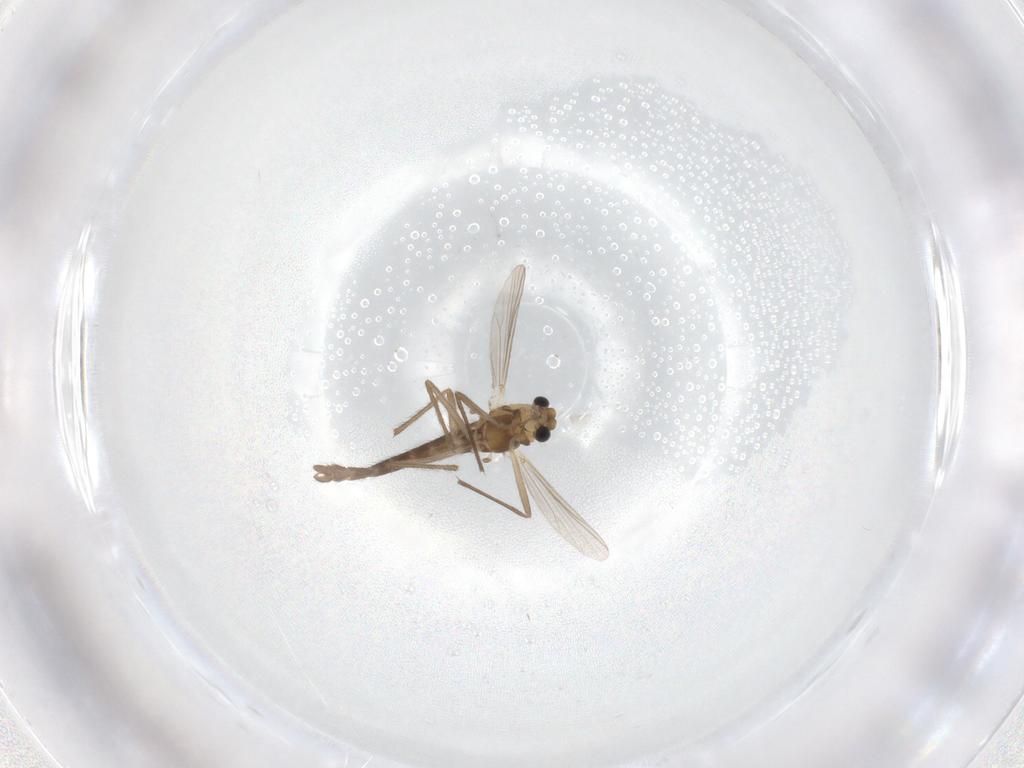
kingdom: Animalia
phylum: Arthropoda
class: Insecta
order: Diptera
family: Chironomidae
